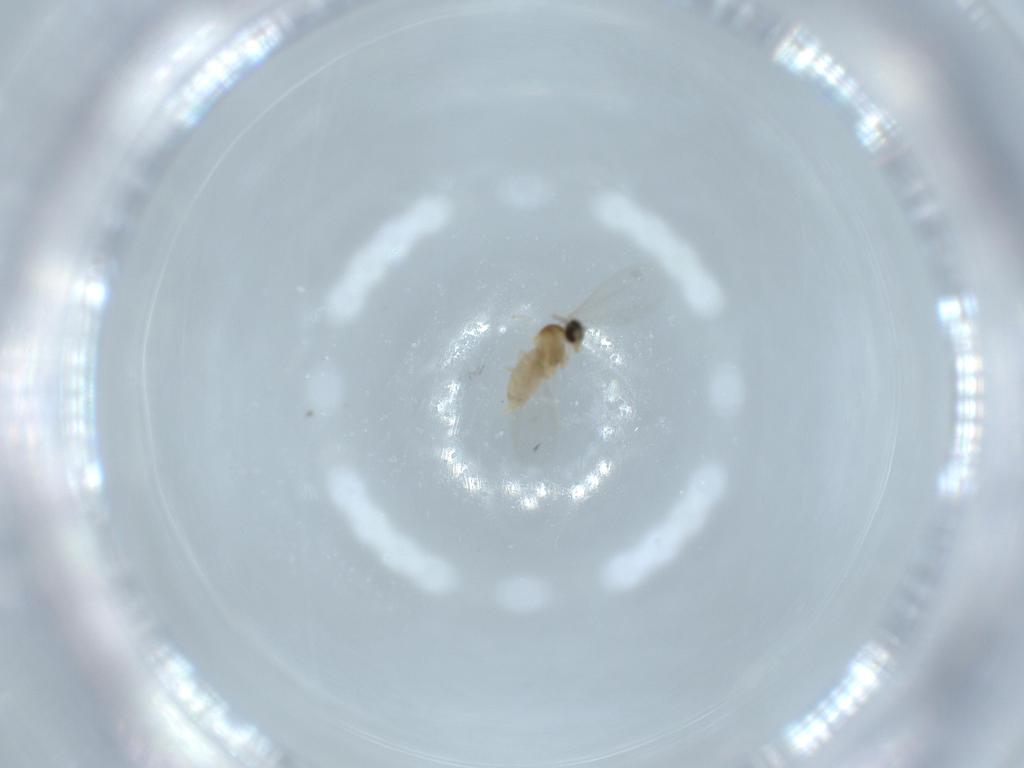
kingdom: Animalia
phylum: Arthropoda
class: Insecta
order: Diptera
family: Cecidomyiidae
